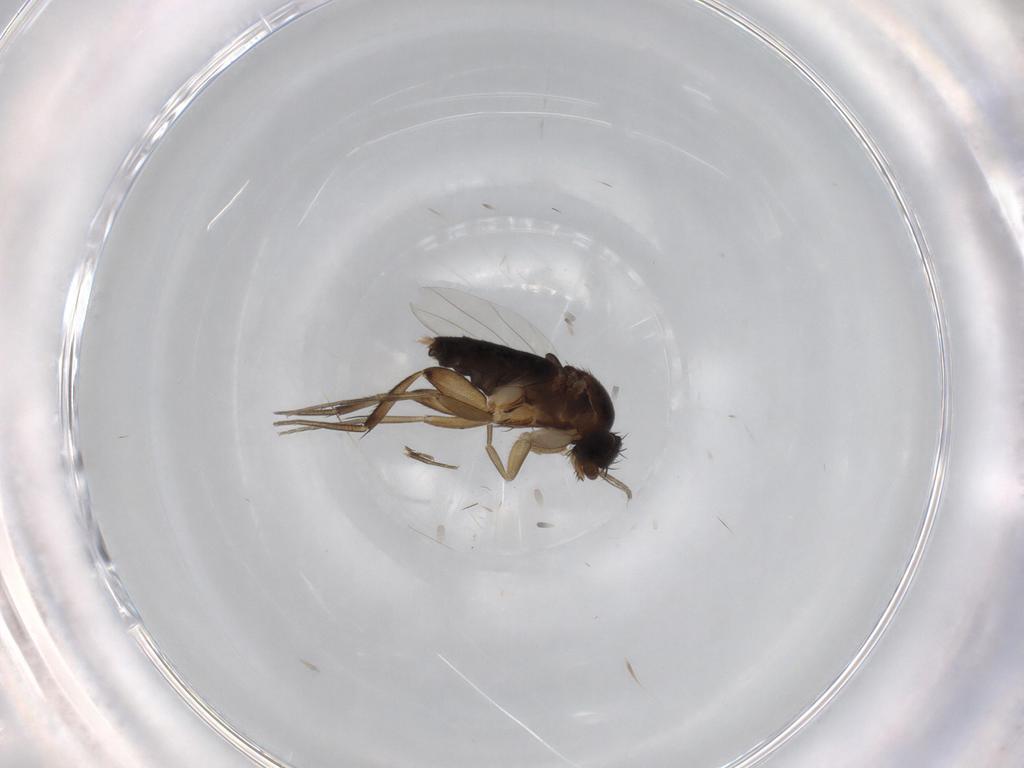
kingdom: Animalia
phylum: Arthropoda
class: Insecta
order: Diptera
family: Phoridae
